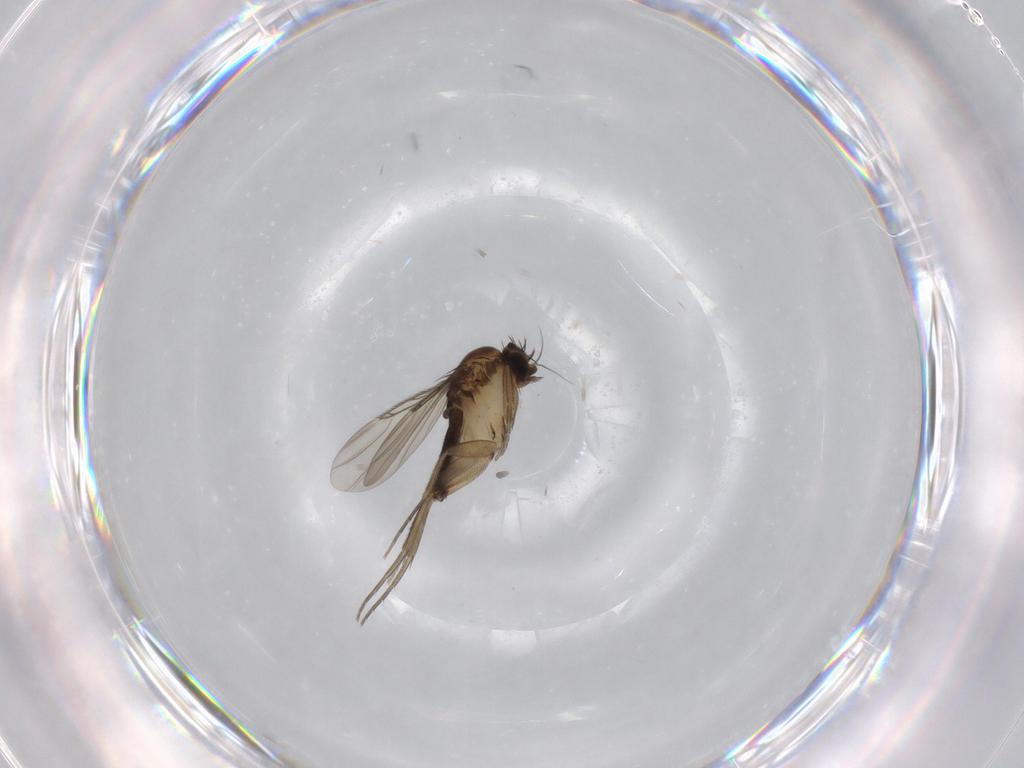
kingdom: Animalia
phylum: Arthropoda
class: Insecta
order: Diptera
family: Phoridae
